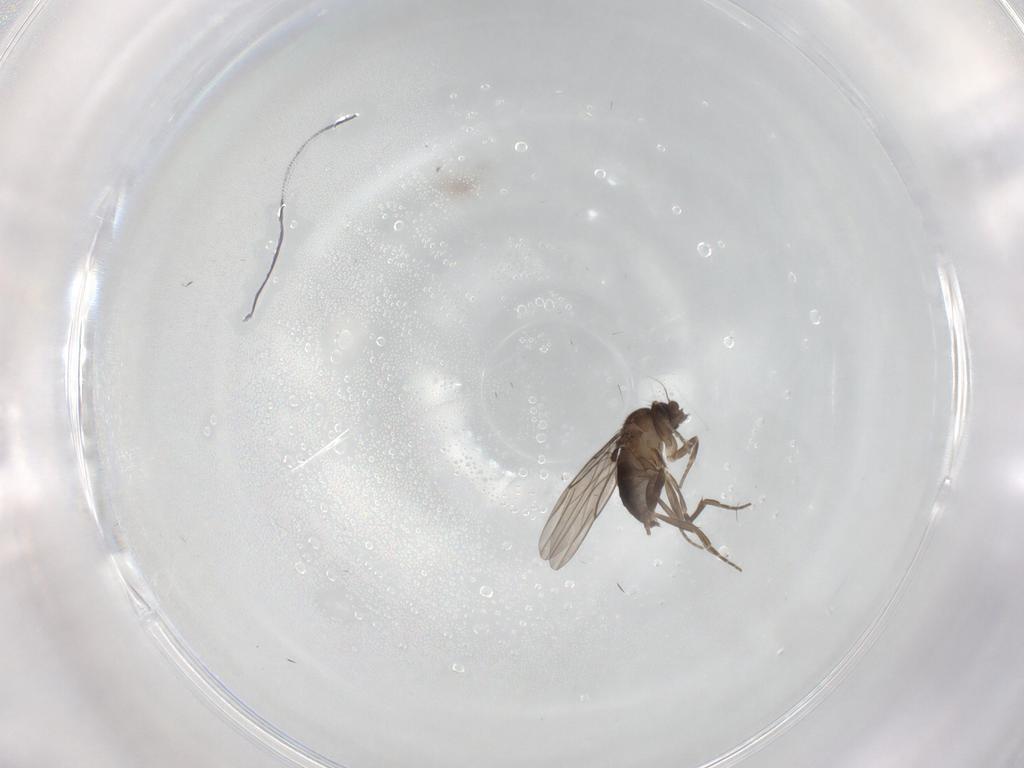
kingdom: Animalia
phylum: Arthropoda
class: Insecta
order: Diptera
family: Phoridae
